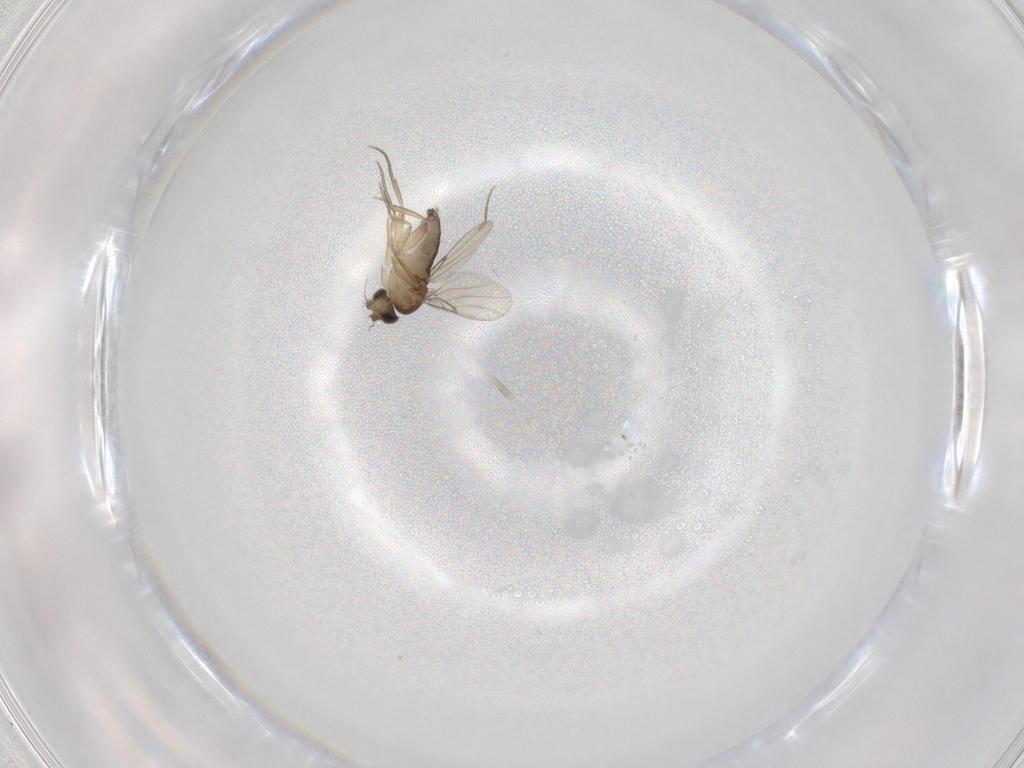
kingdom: Animalia
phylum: Arthropoda
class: Insecta
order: Diptera
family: Phoridae
